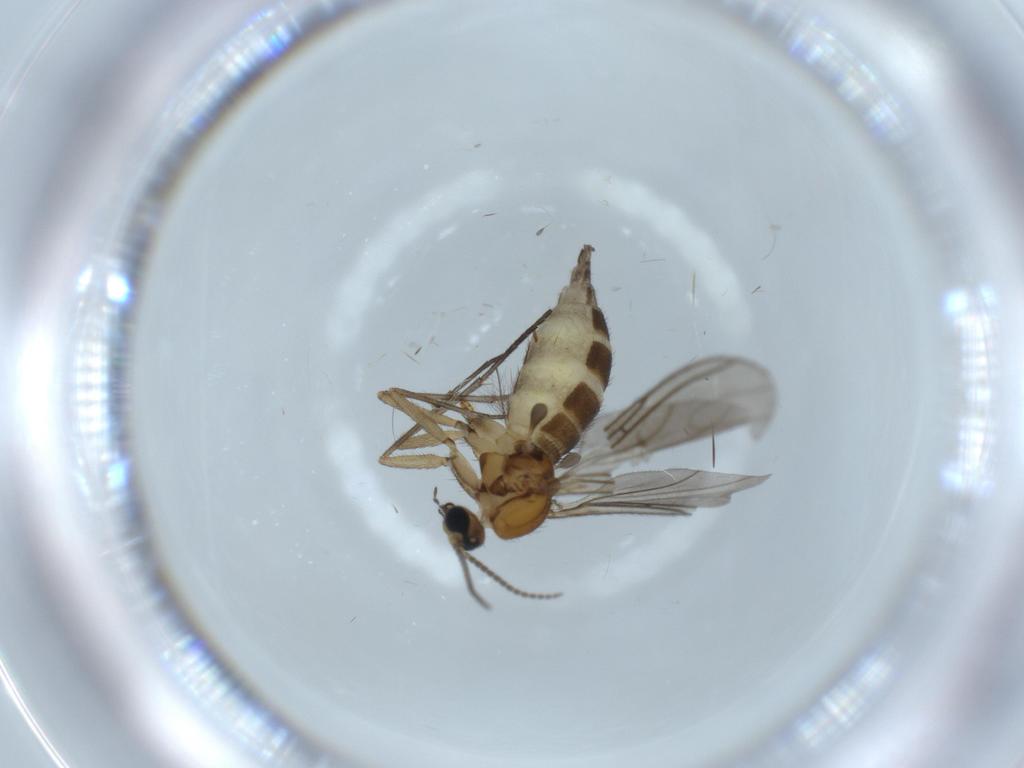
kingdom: Animalia
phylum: Arthropoda
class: Insecta
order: Diptera
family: Sciaridae
